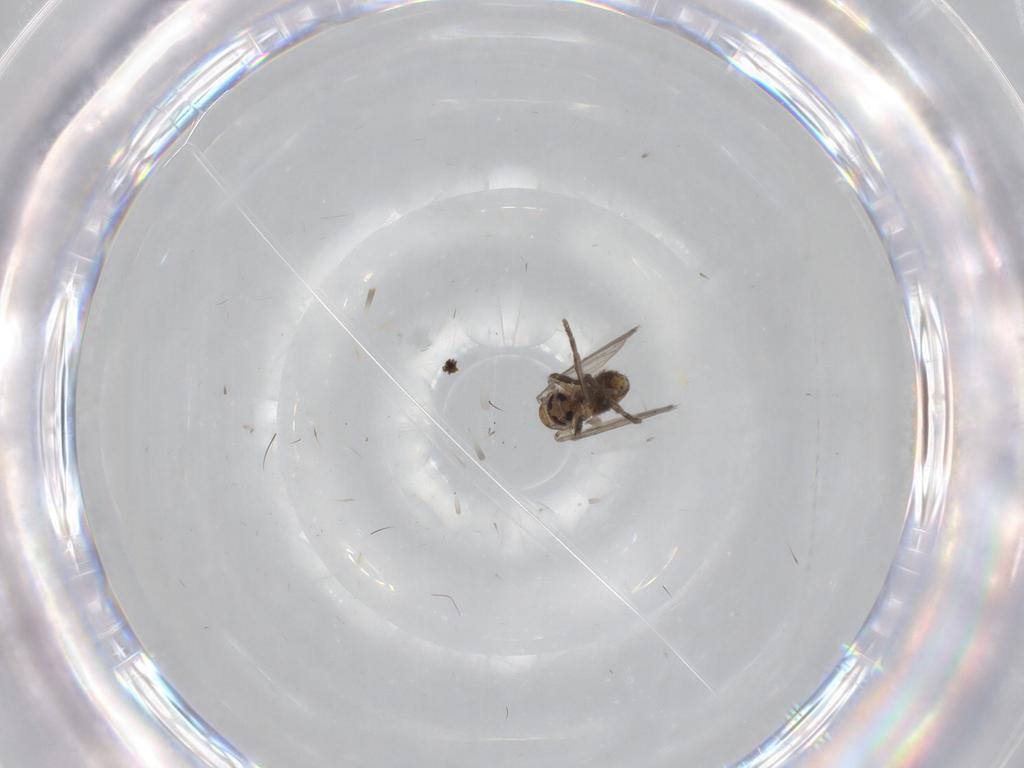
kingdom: Animalia
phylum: Arthropoda
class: Insecta
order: Diptera
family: Psychodidae
